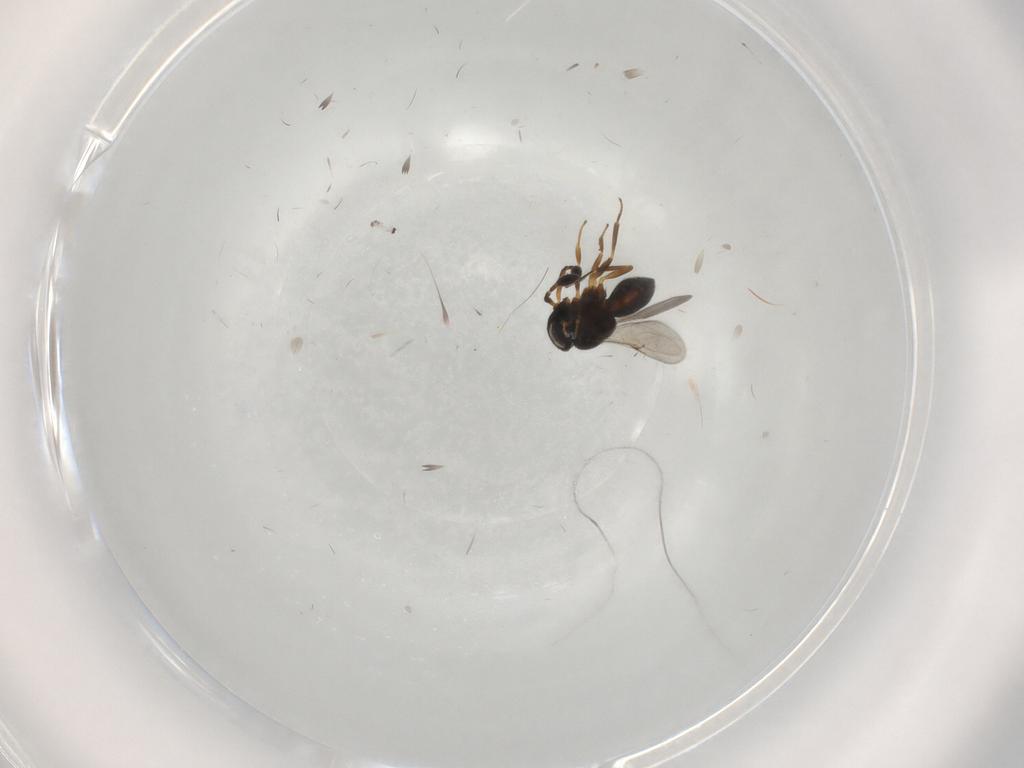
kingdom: Animalia
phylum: Arthropoda
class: Insecta
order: Hymenoptera
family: Scelionidae
